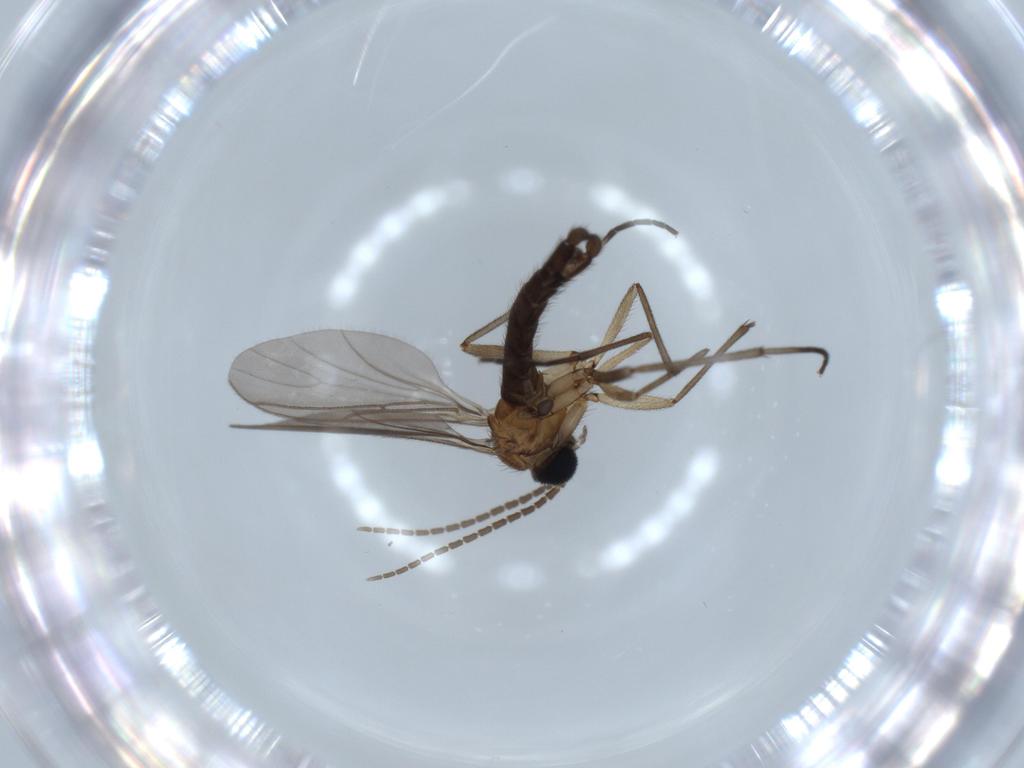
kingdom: Animalia
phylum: Arthropoda
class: Insecta
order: Diptera
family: Sciaridae
